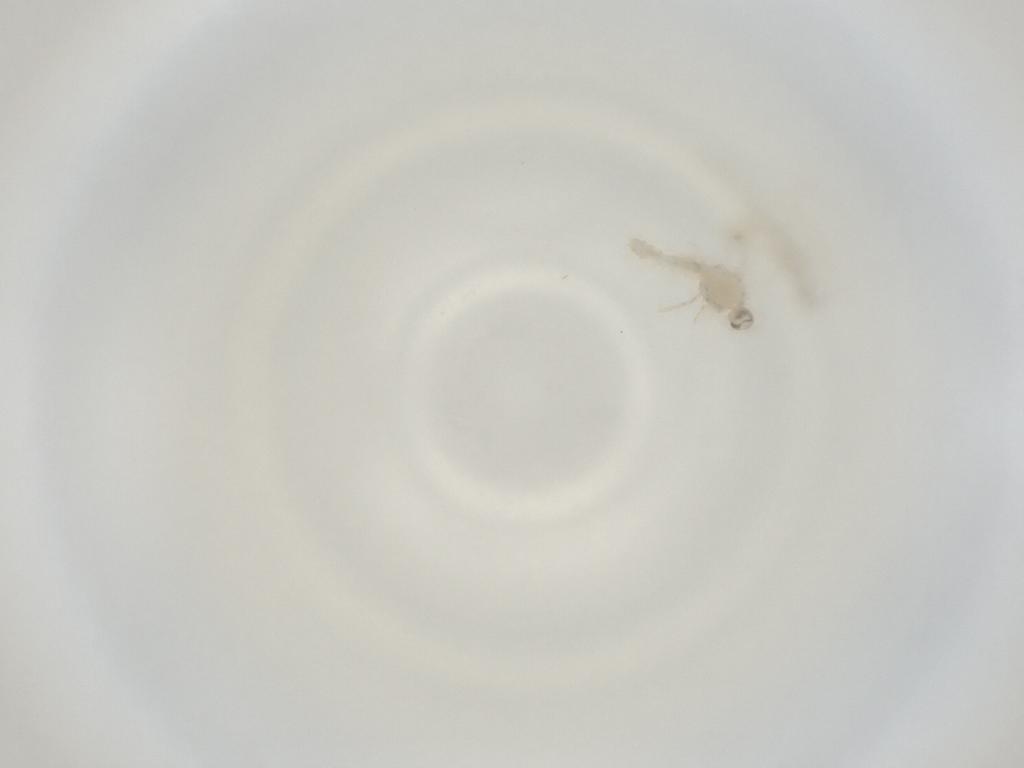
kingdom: Animalia
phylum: Arthropoda
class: Insecta
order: Diptera
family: Cecidomyiidae
